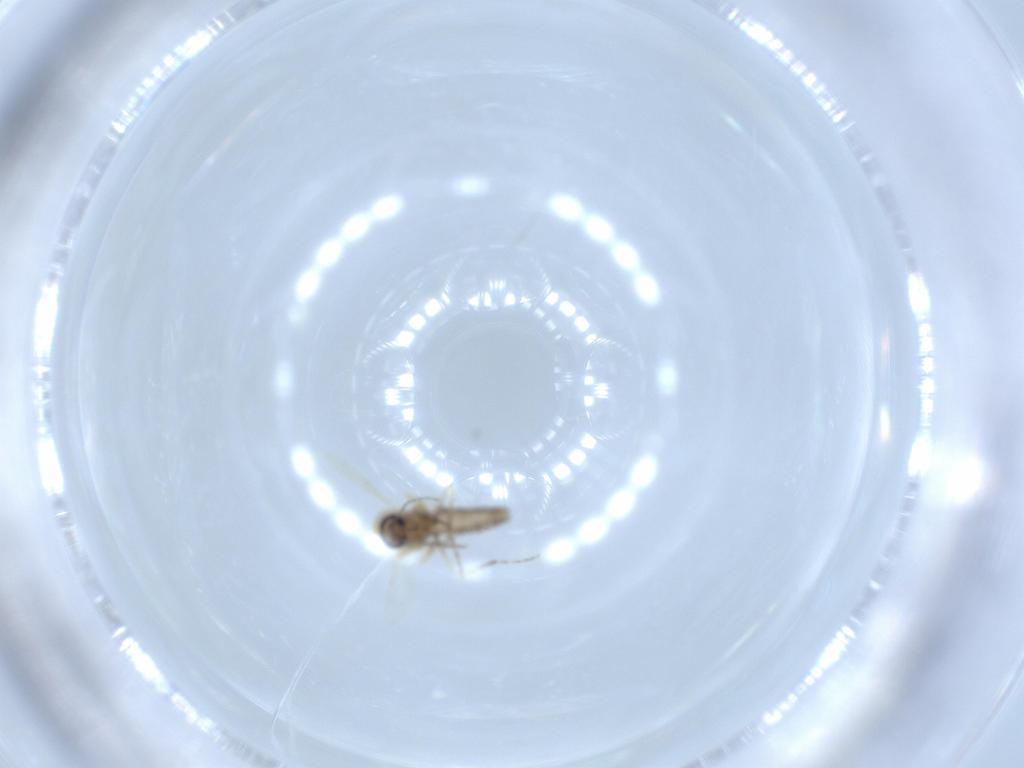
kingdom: Animalia
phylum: Arthropoda
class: Insecta
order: Diptera
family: Ceratopogonidae
